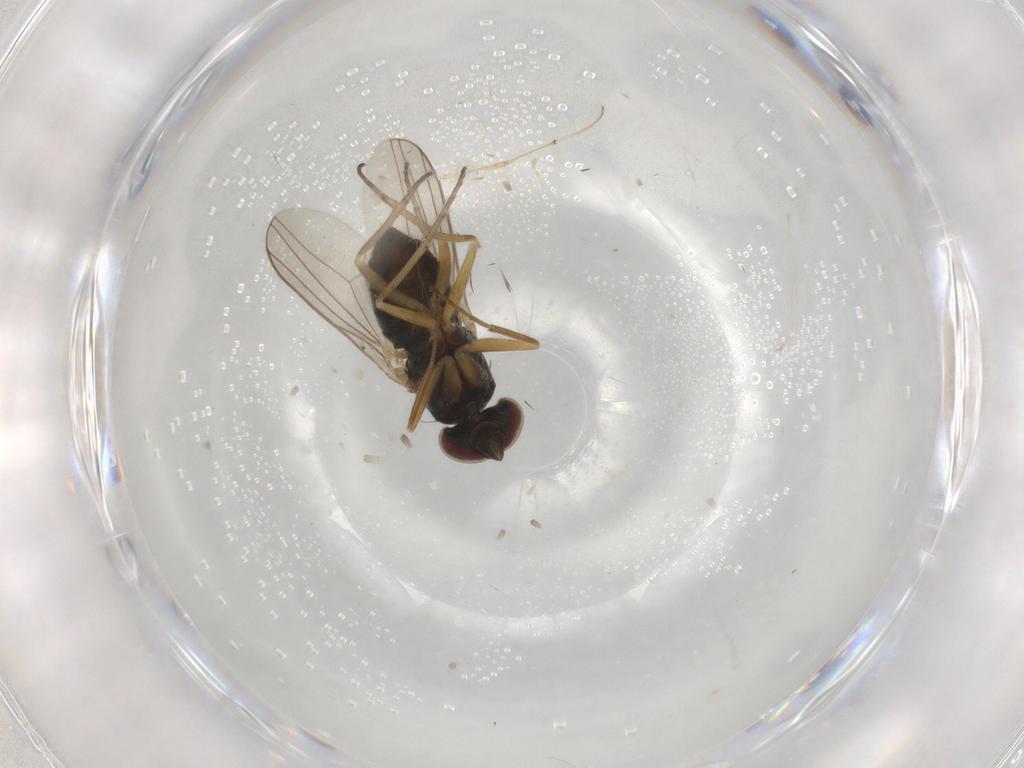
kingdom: Animalia
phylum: Arthropoda
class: Insecta
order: Diptera
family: Dolichopodidae
